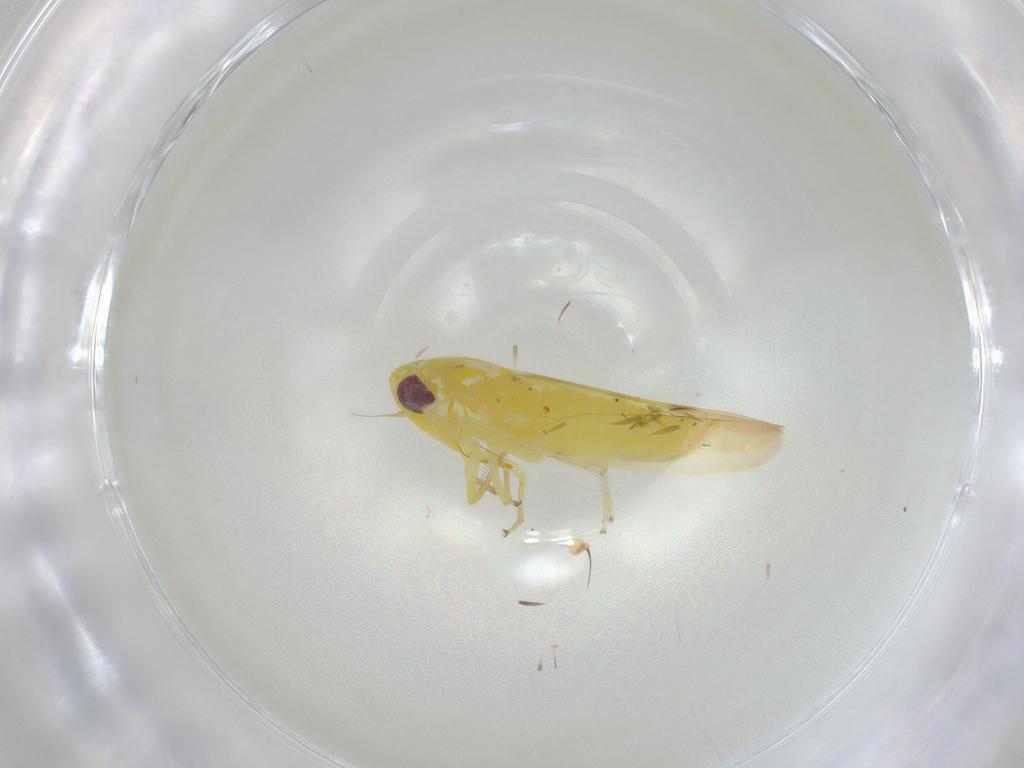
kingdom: Animalia
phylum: Arthropoda
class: Insecta
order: Hemiptera
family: Cicadellidae
